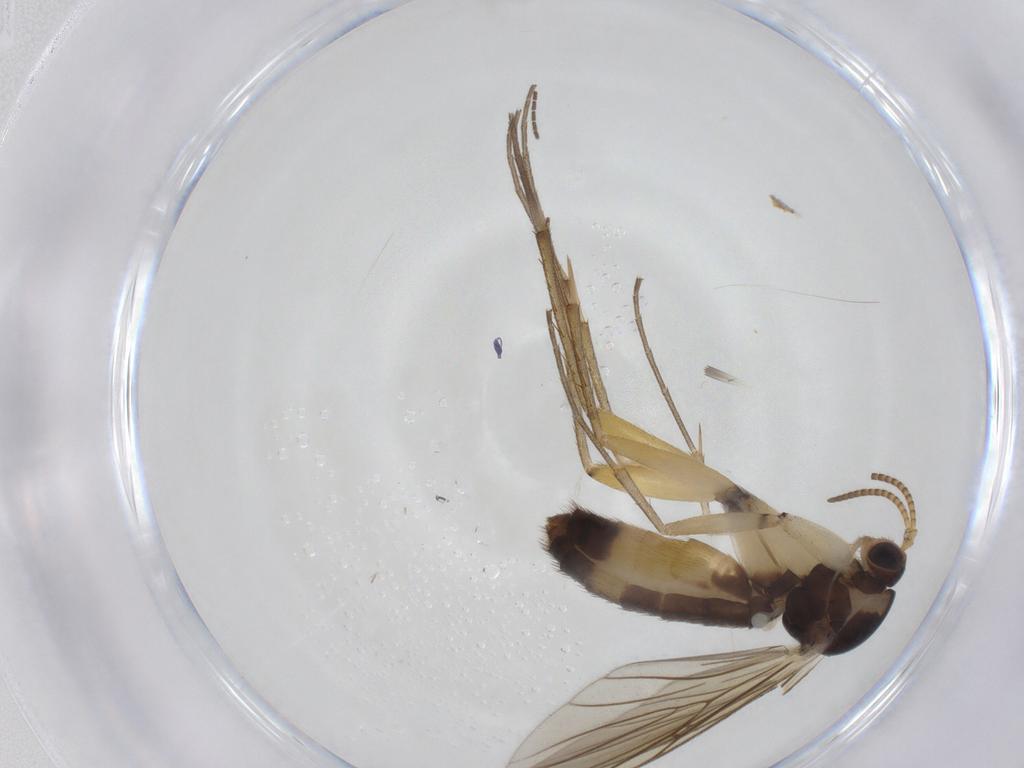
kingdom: Animalia
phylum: Arthropoda
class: Insecta
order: Diptera
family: Mycetophilidae
